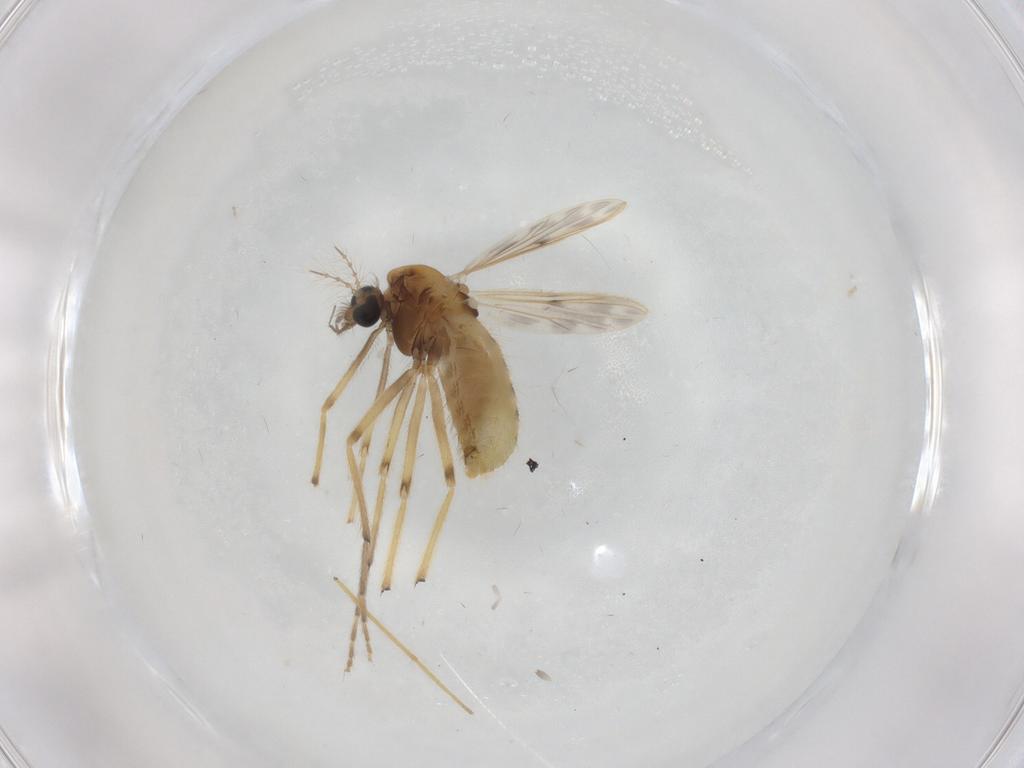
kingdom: Animalia
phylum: Arthropoda
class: Insecta
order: Diptera
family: Chironomidae
